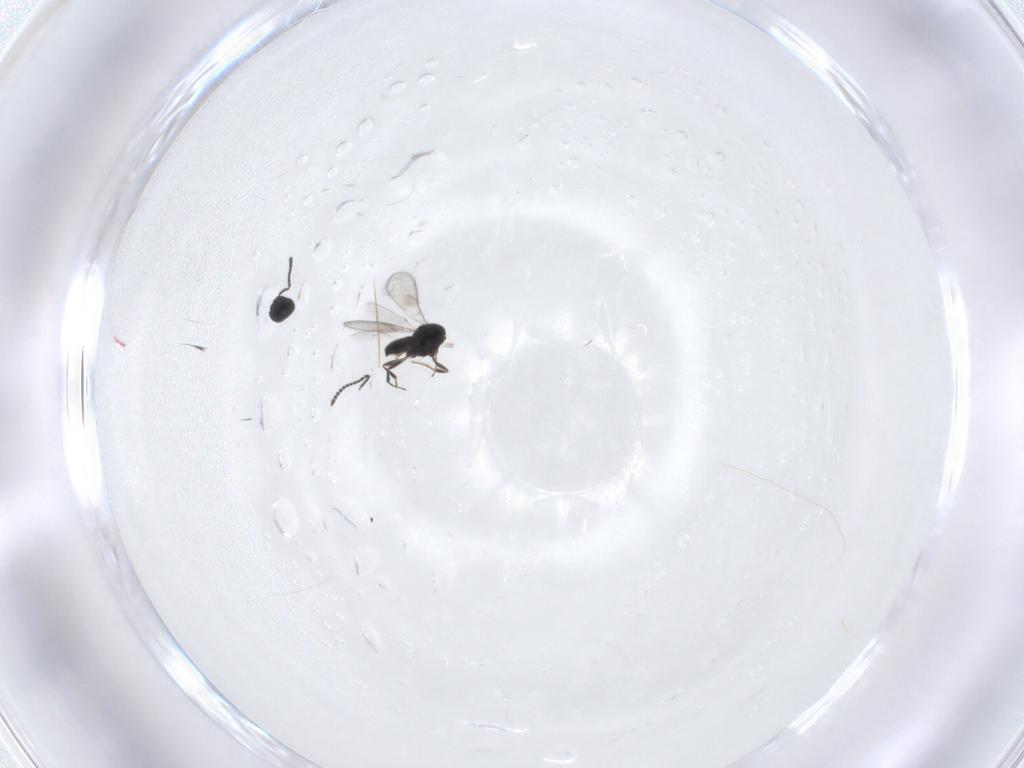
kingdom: Animalia
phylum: Arthropoda
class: Insecta
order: Hymenoptera
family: Scelionidae
